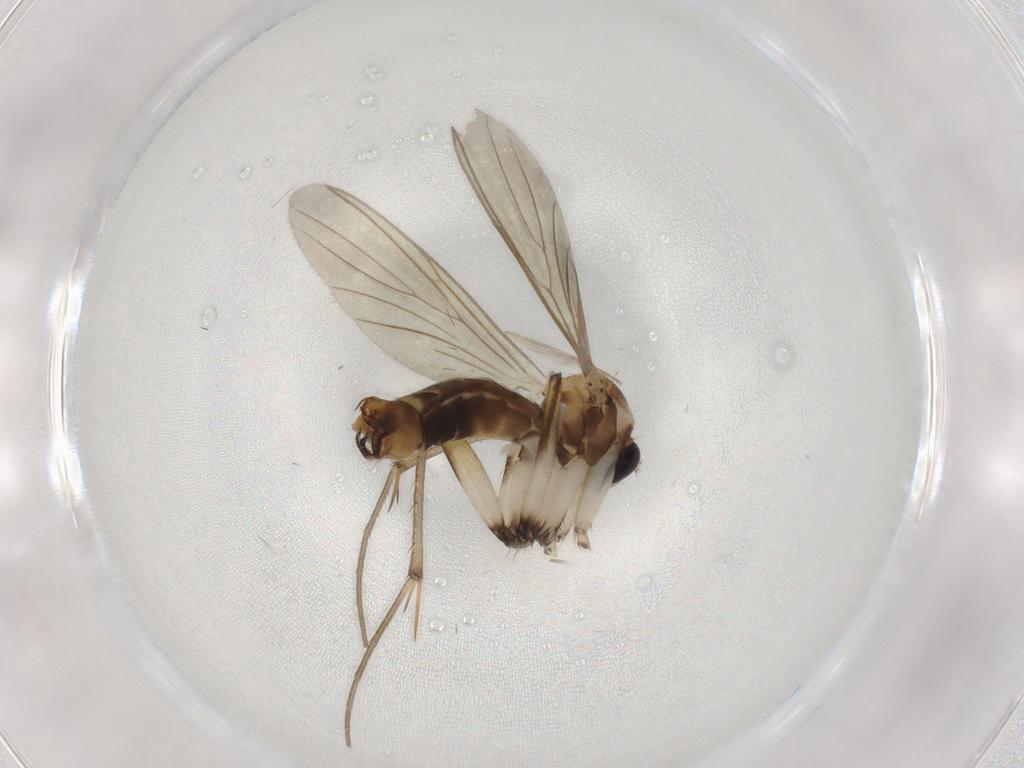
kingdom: Animalia
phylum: Arthropoda
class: Insecta
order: Diptera
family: Mycetophilidae
